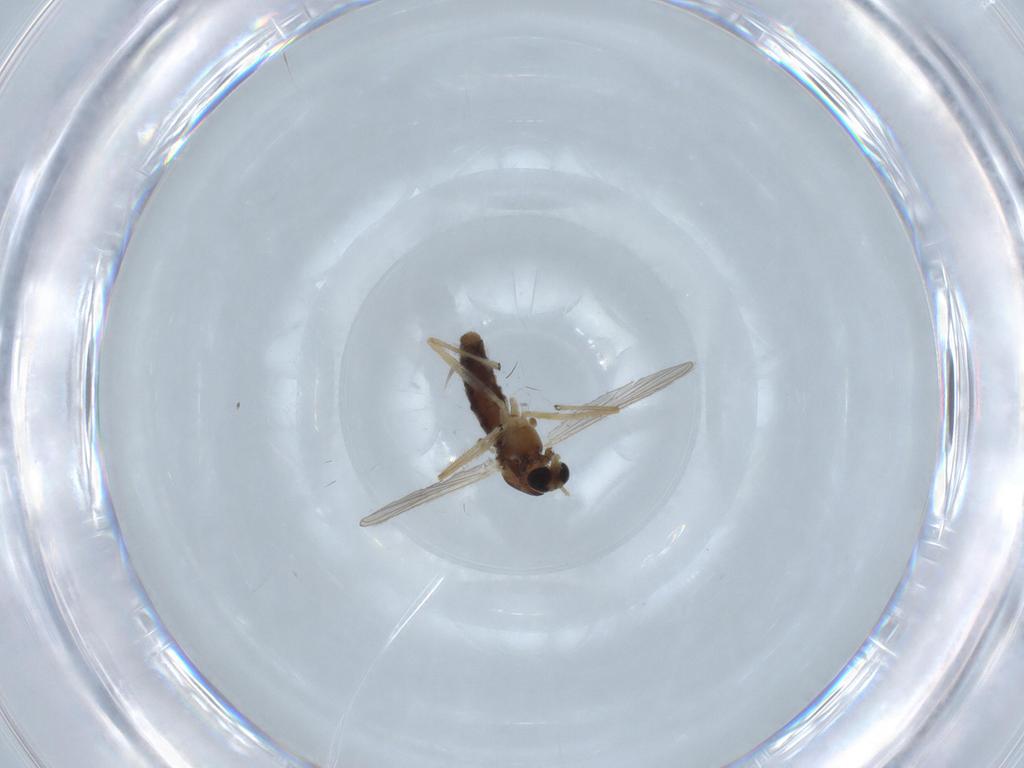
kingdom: Animalia
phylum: Arthropoda
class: Insecta
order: Diptera
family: Chironomidae
